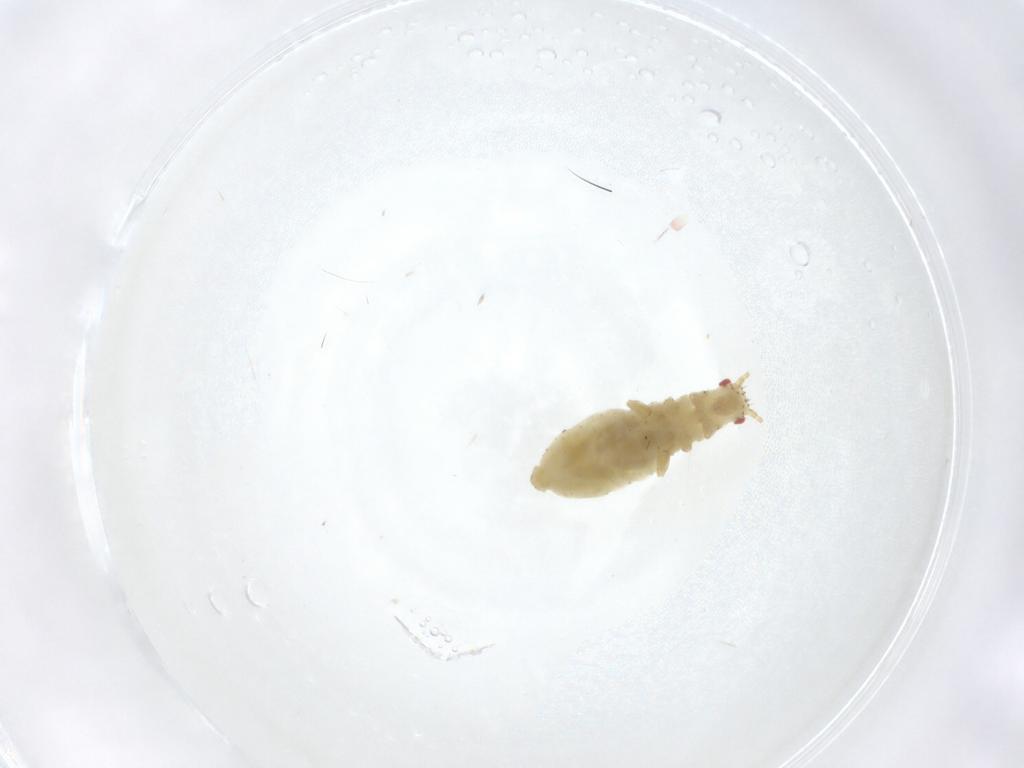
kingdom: Animalia
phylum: Arthropoda
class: Insecta
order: Hemiptera
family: Aphididae
